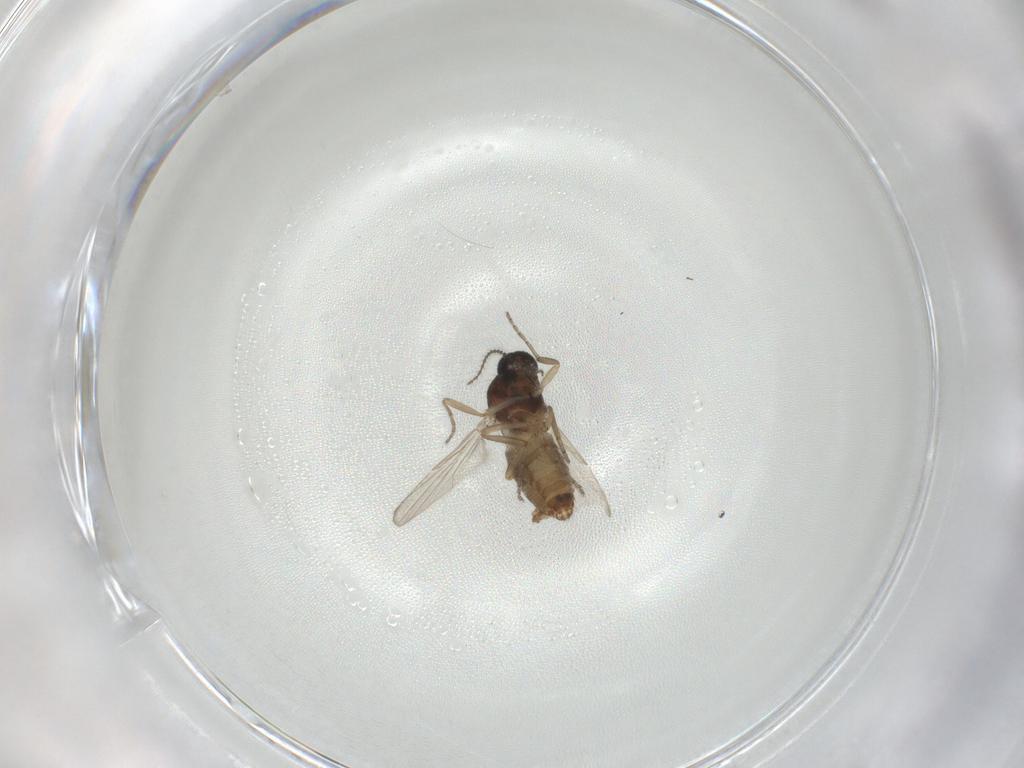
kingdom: Animalia
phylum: Arthropoda
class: Insecta
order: Diptera
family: Ceratopogonidae
